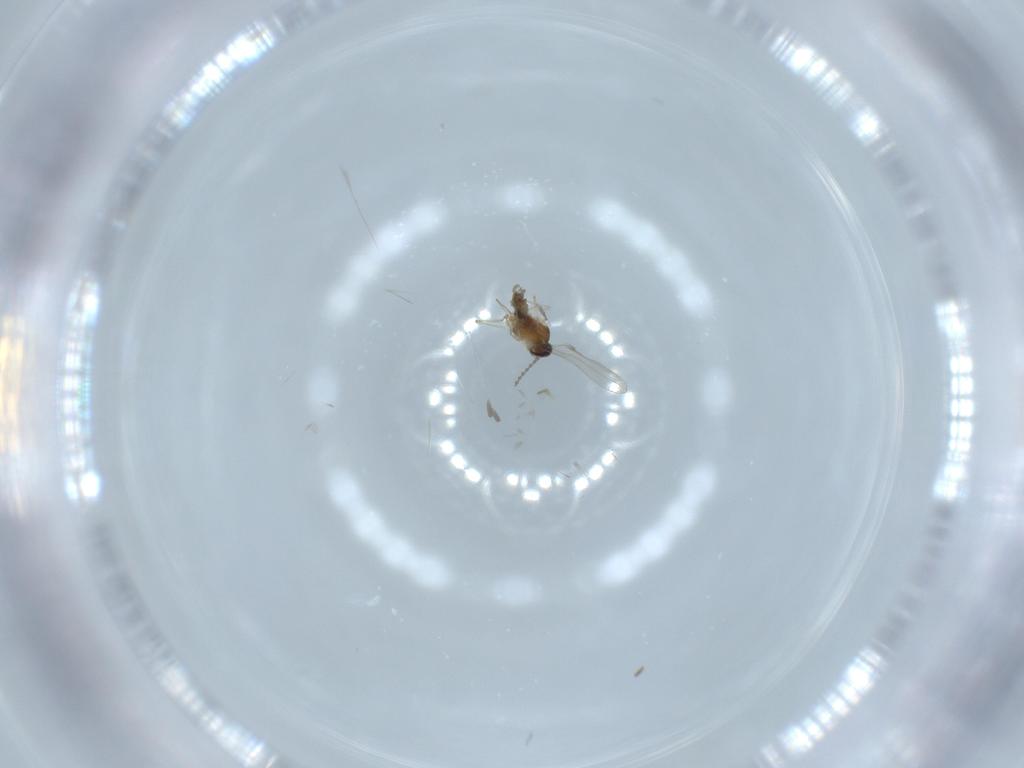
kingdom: Animalia
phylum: Arthropoda
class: Insecta
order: Diptera
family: Cecidomyiidae
